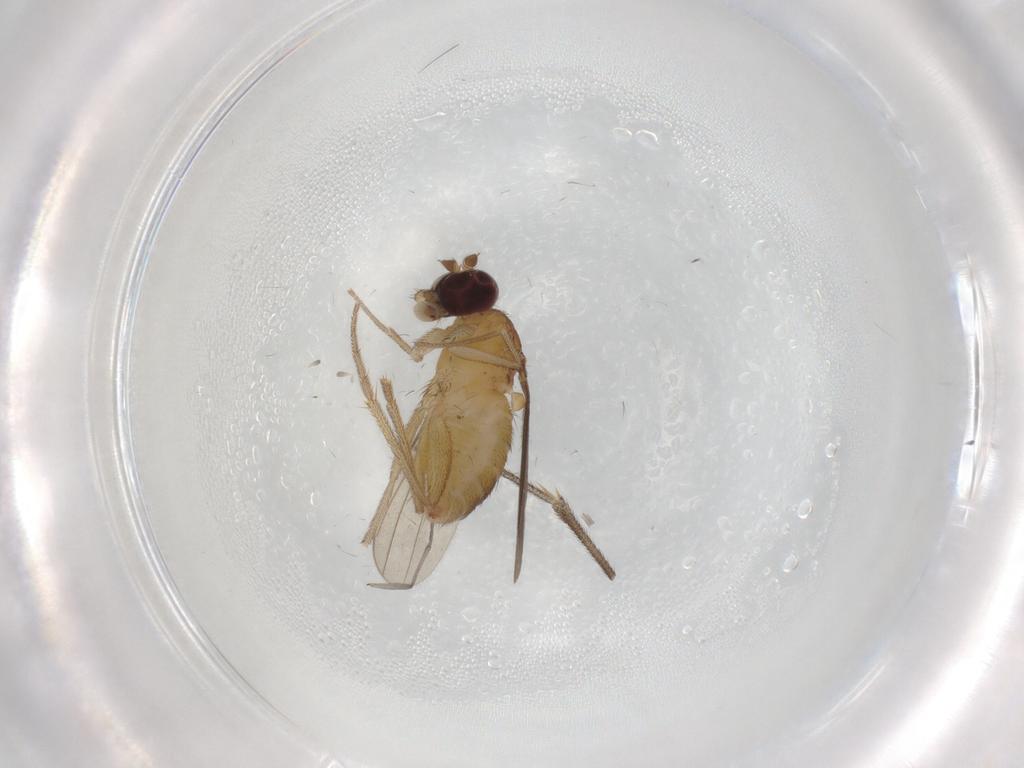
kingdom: Animalia
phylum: Arthropoda
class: Insecta
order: Diptera
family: Dolichopodidae
